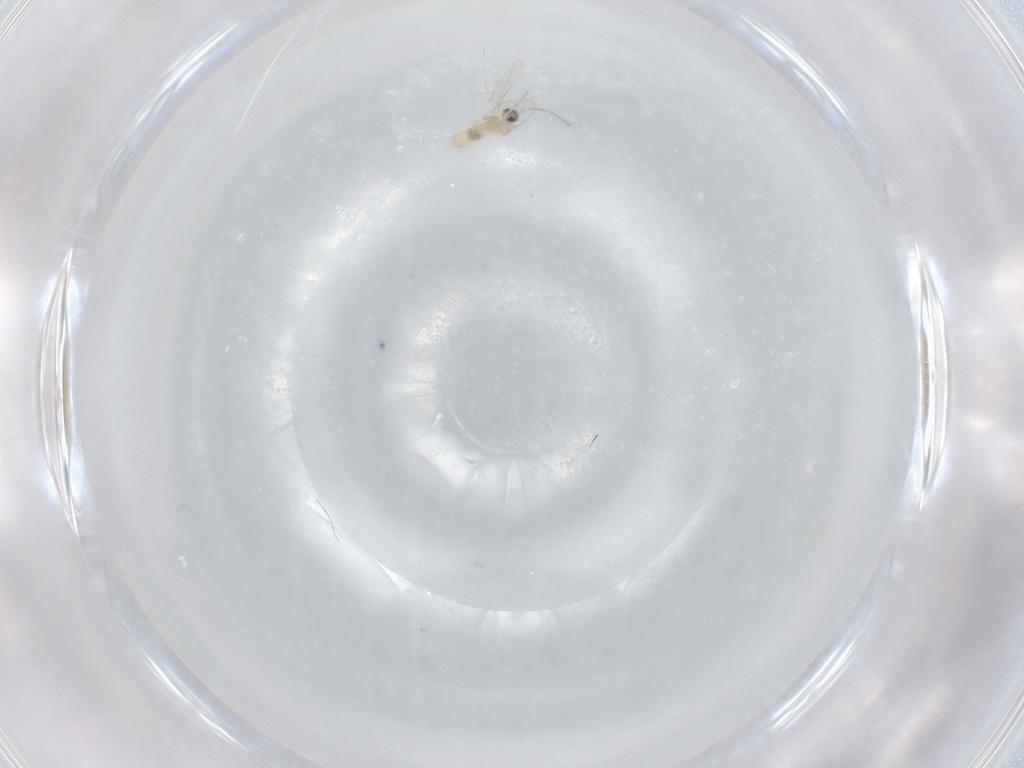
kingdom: Animalia
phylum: Arthropoda
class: Insecta
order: Diptera
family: Cecidomyiidae
